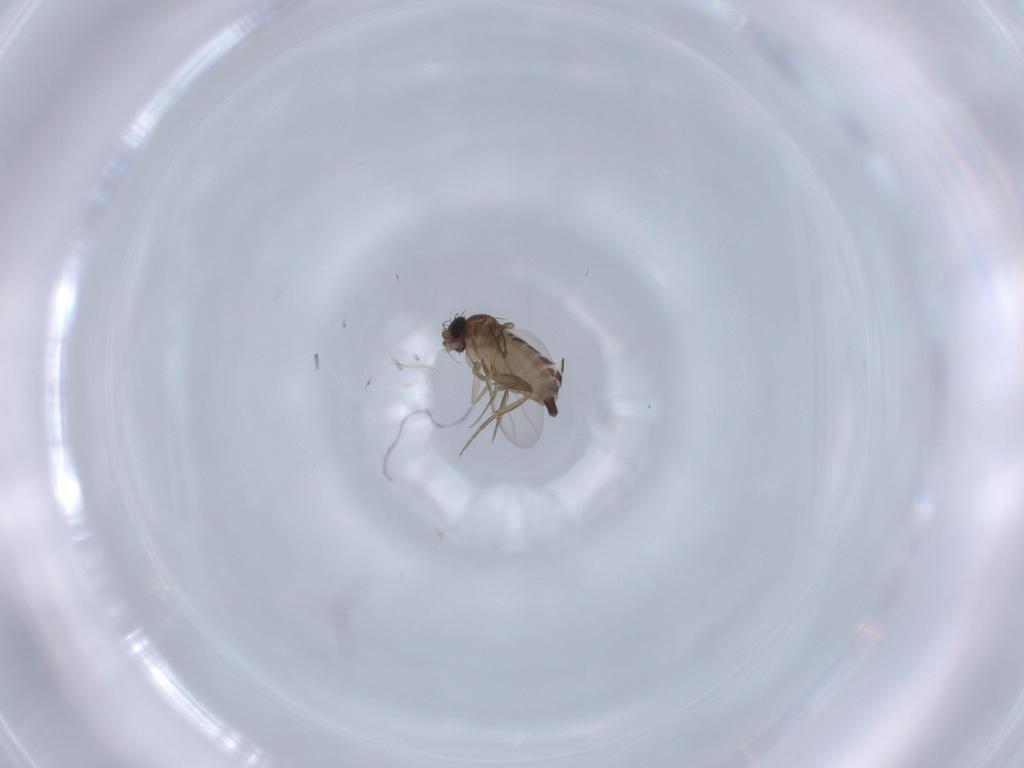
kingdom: Animalia
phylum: Arthropoda
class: Insecta
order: Diptera
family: Phoridae
